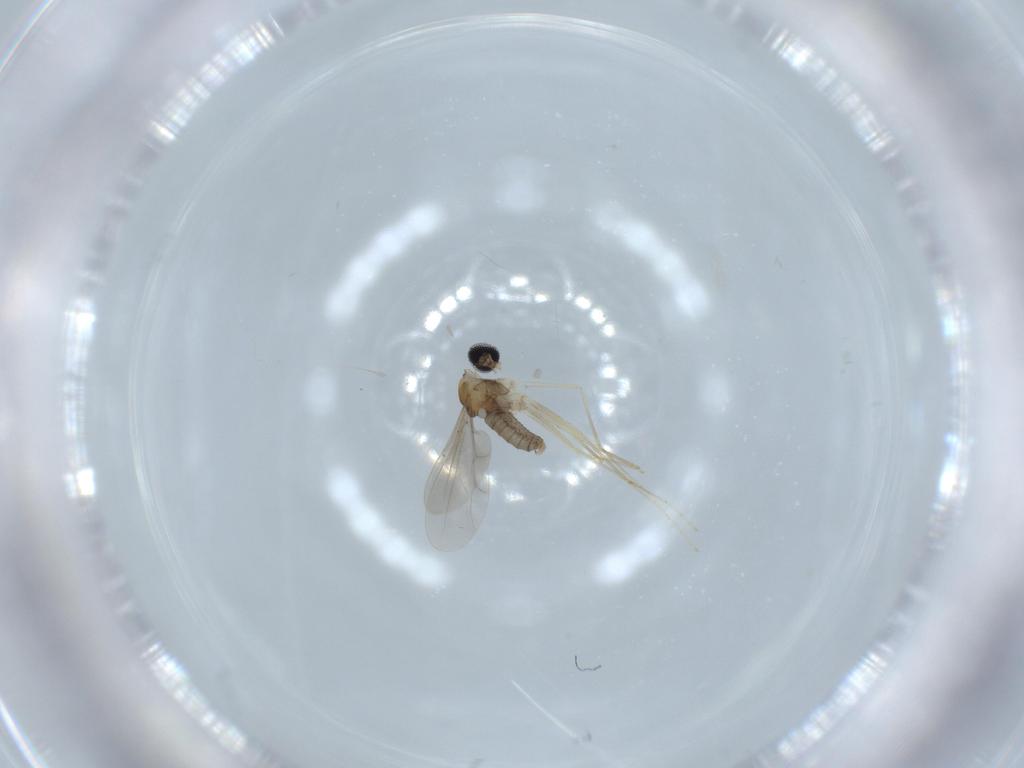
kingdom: Animalia
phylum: Arthropoda
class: Insecta
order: Diptera
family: Cecidomyiidae
